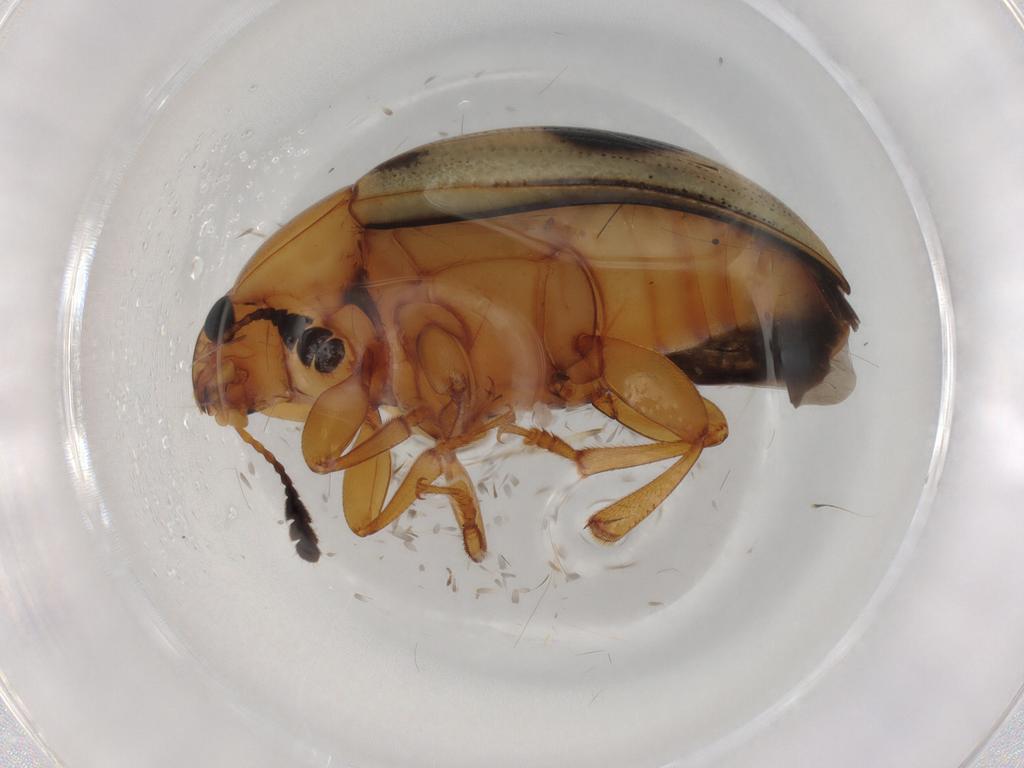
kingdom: Animalia
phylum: Arthropoda
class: Insecta
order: Coleoptera
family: Erotylidae
